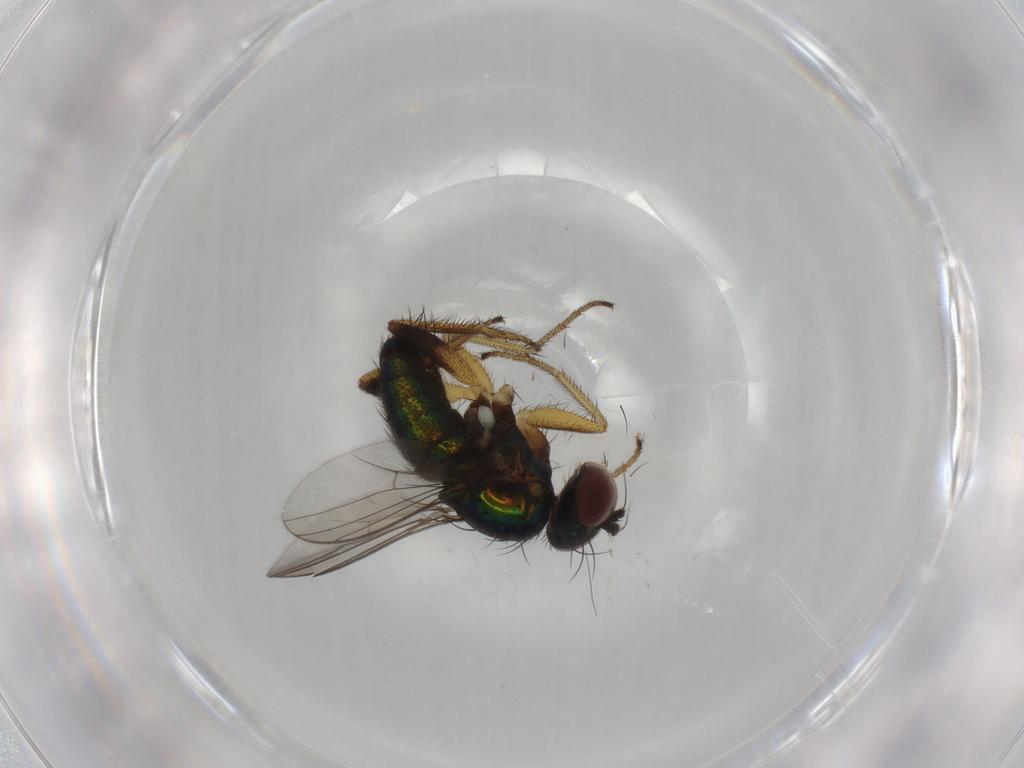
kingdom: Animalia
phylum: Arthropoda
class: Insecta
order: Diptera
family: Dolichopodidae
